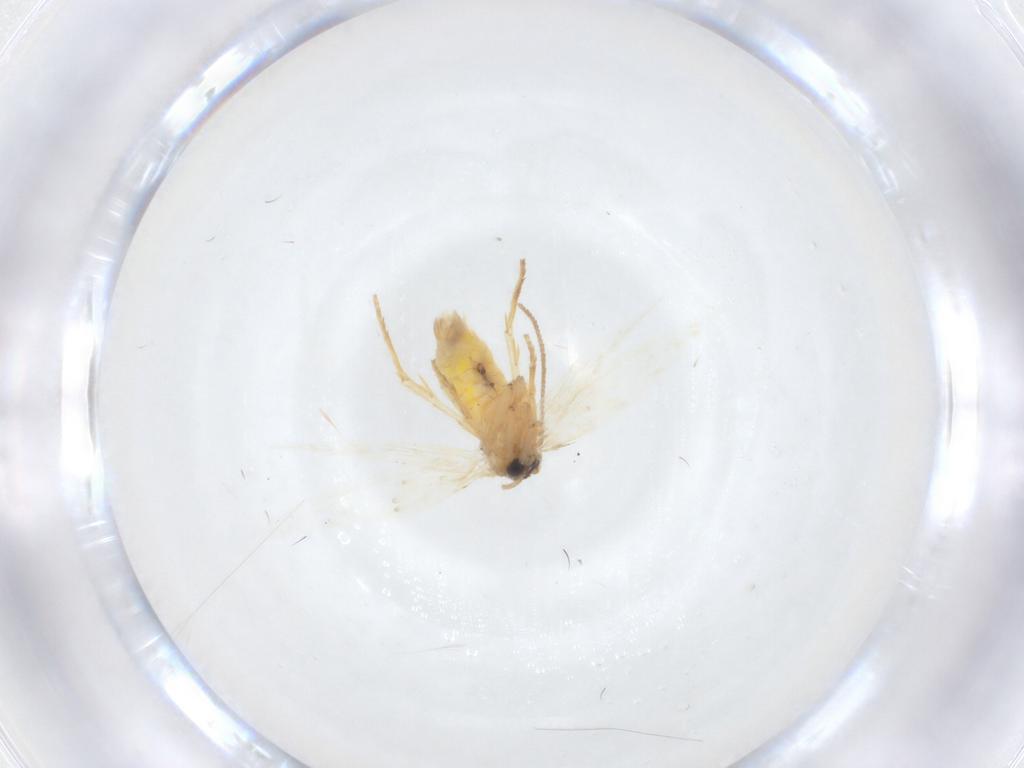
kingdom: Animalia
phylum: Arthropoda
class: Insecta
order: Lepidoptera
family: Nepticulidae
